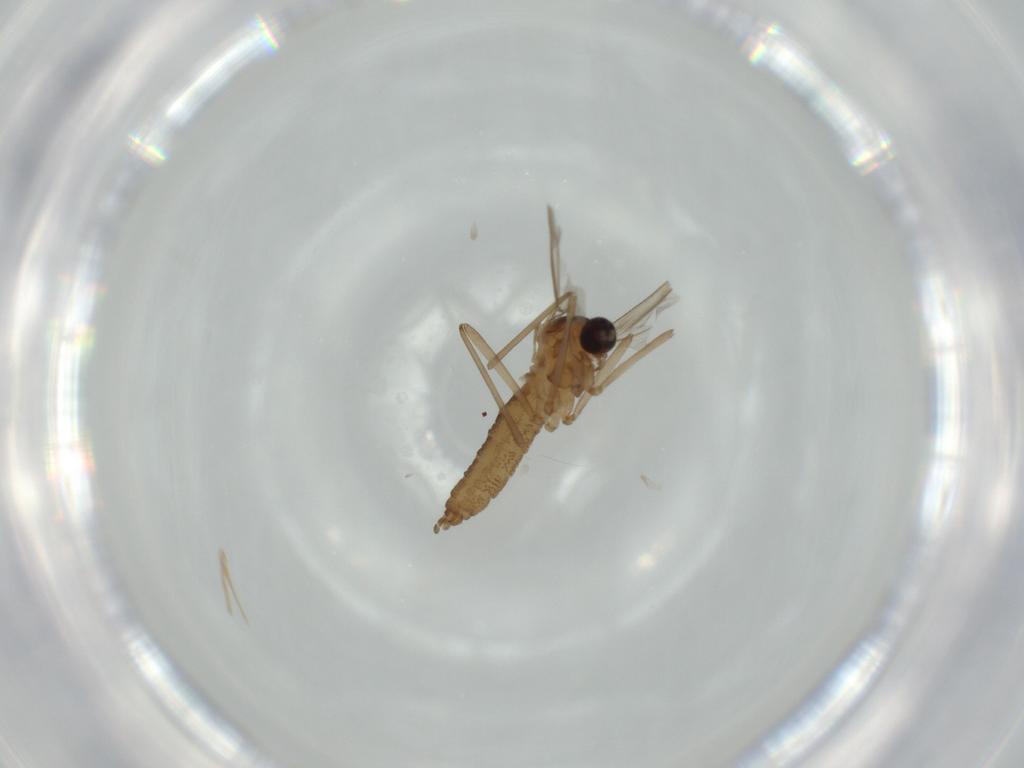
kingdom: Animalia
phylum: Arthropoda
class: Insecta
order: Diptera
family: Cecidomyiidae
